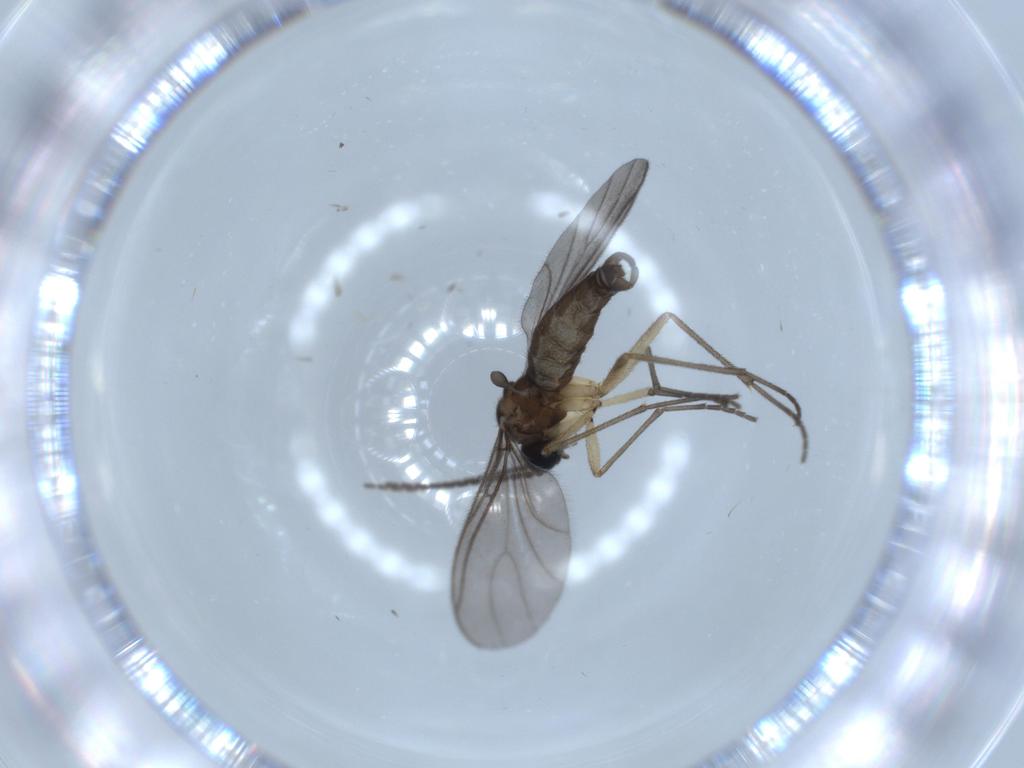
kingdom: Animalia
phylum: Arthropoda
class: Insecta
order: Diptera
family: Sciaridae
